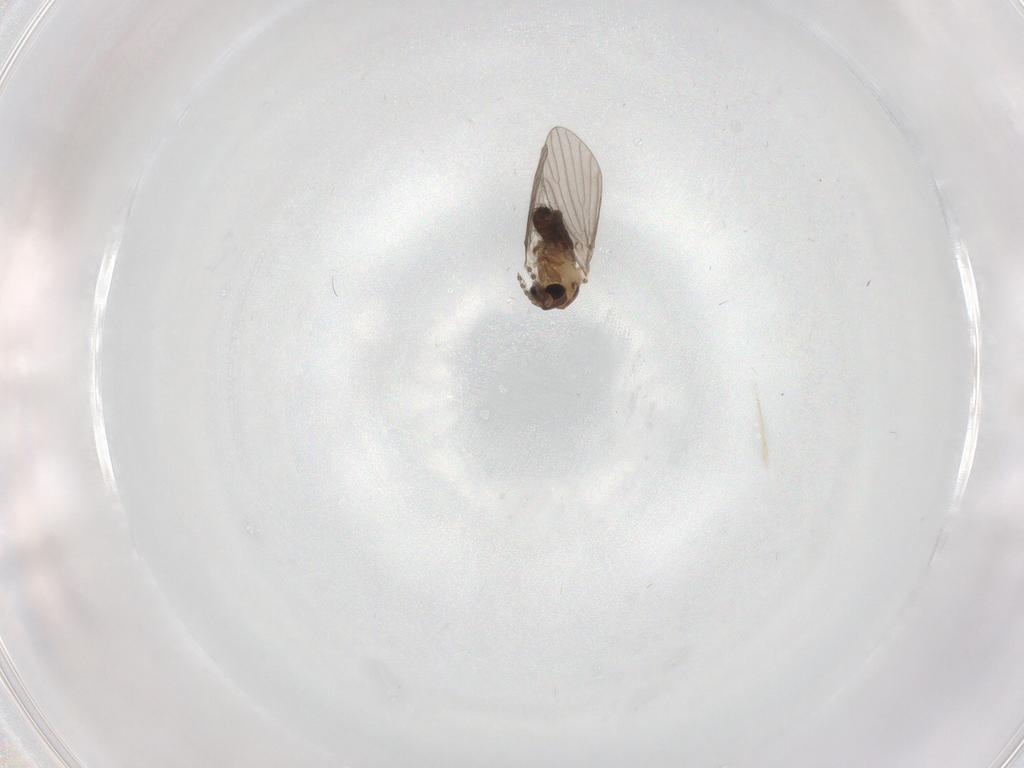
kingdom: Animalia
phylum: Arthropoda
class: Insecta
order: Diptera
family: Psychodidae
